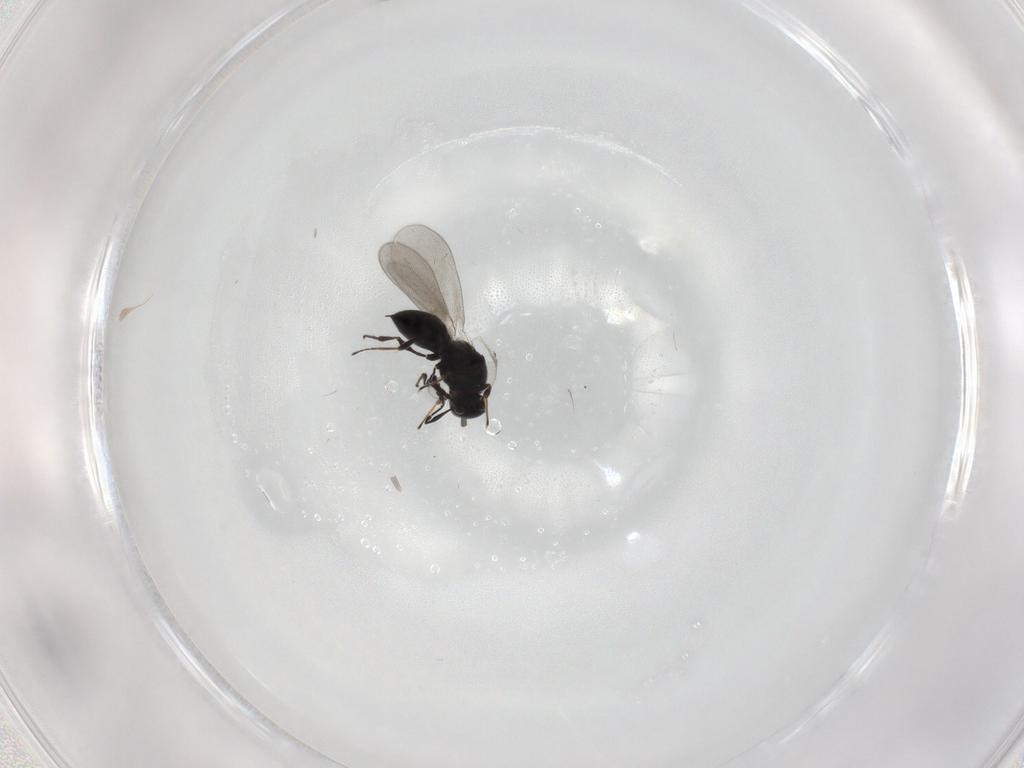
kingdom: Animalia
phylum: Arthropoda
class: Insecta
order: Hymenoptera
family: Platygastridae
